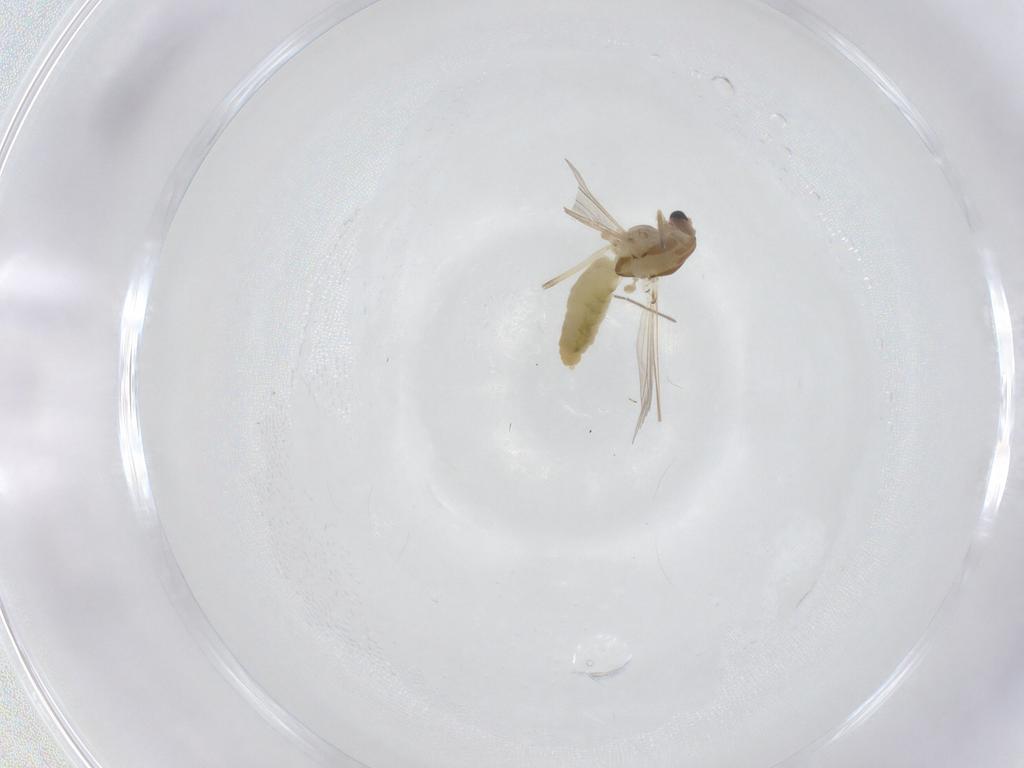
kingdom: Animalia
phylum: Arthropoda
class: Insecta
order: Diptera
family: Chironomidae
